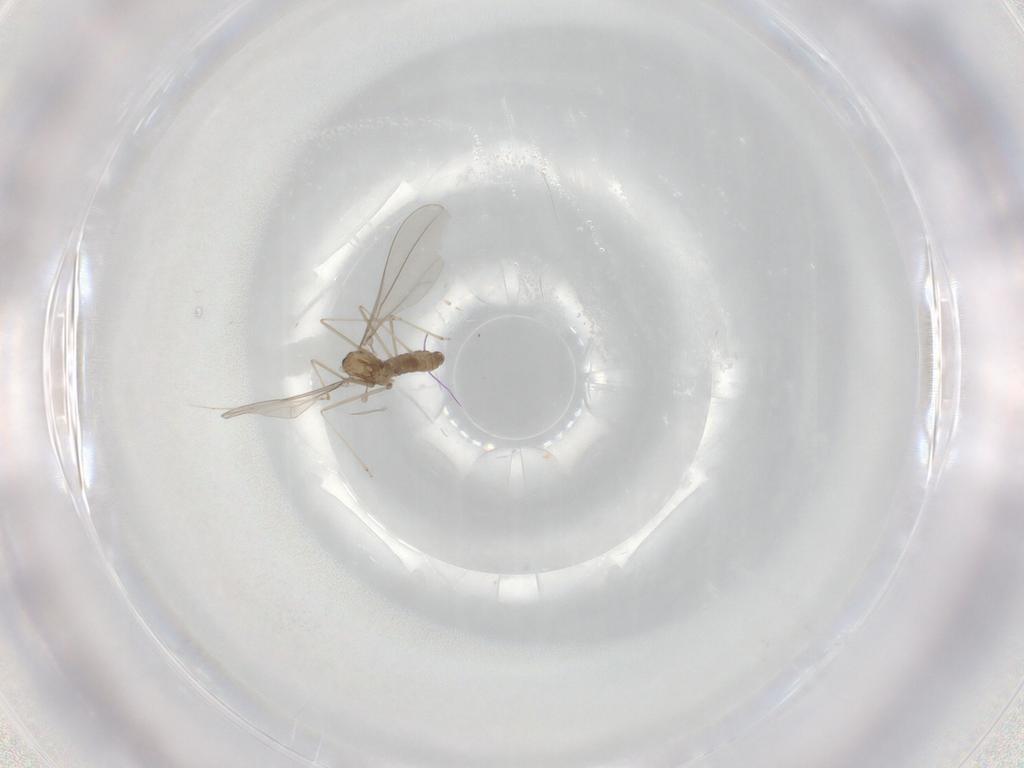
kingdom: Animalia
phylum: Arthropoda
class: Insecta
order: Diptera
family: Cecidomyiidae
